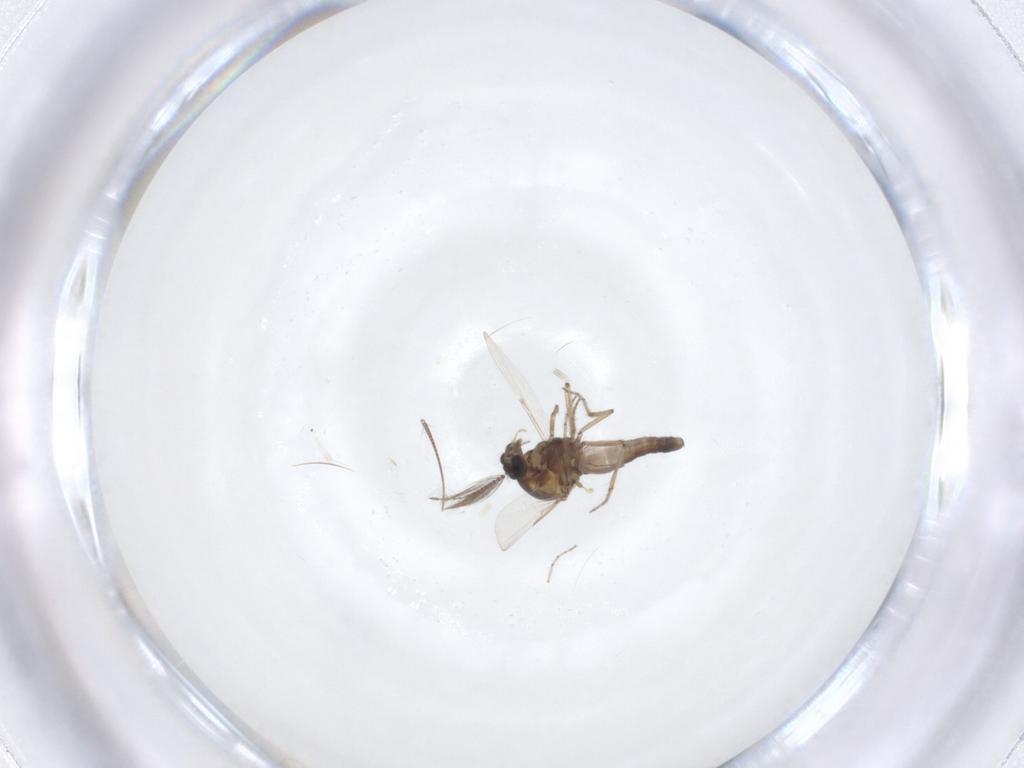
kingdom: Animalia
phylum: Arthropoda
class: Insecta
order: Diptera
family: Ceratopogonidae
